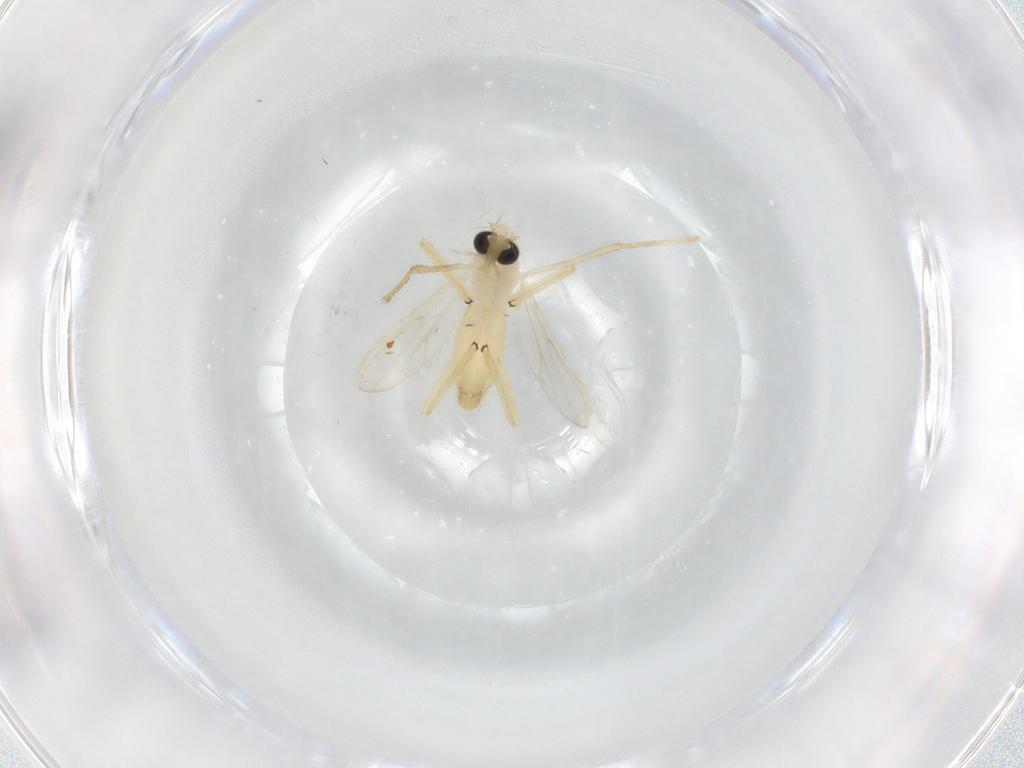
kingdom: Animalia
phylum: Arthropoda
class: Insecta
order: Diptera
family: Chironomidae
